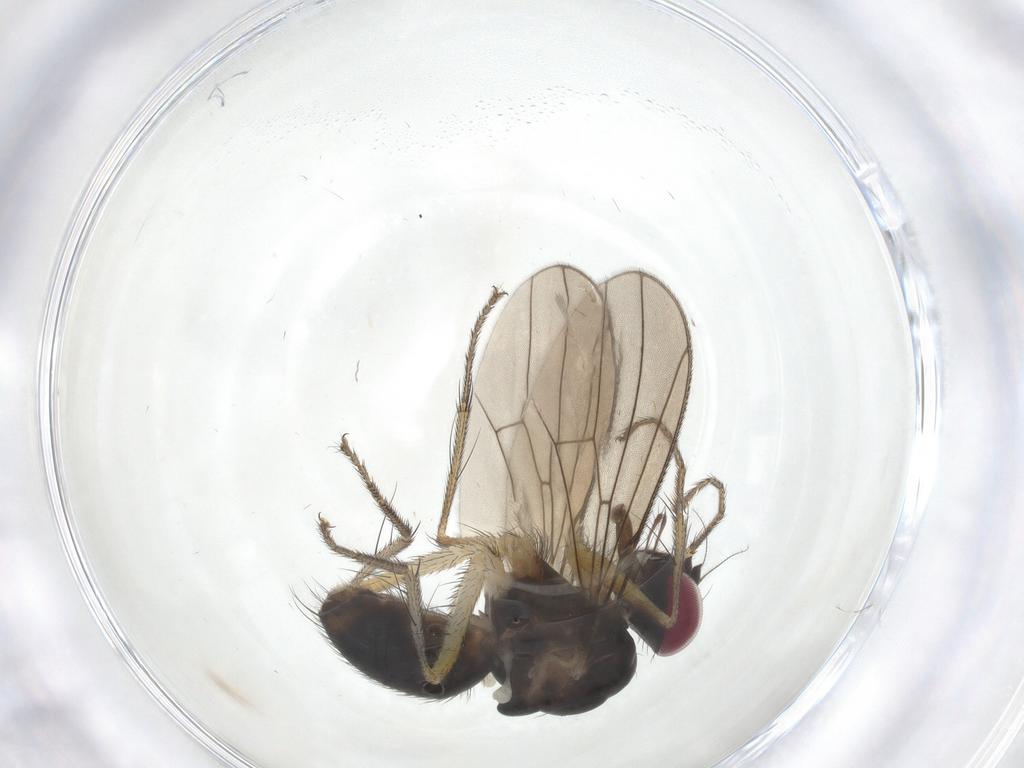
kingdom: Animalia
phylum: Arthropoda
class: Insecta
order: Diptera
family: Anthomyiidae
